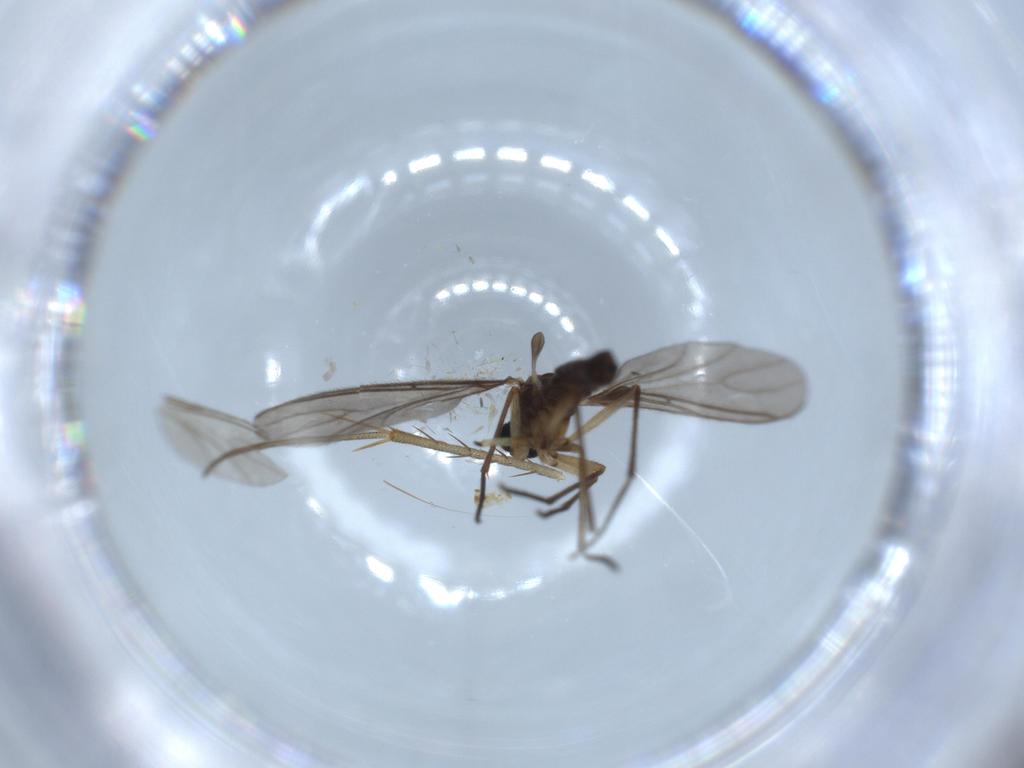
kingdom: Animalia
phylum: Arthropoda
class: Insecta
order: Diptera
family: Sciaridae
